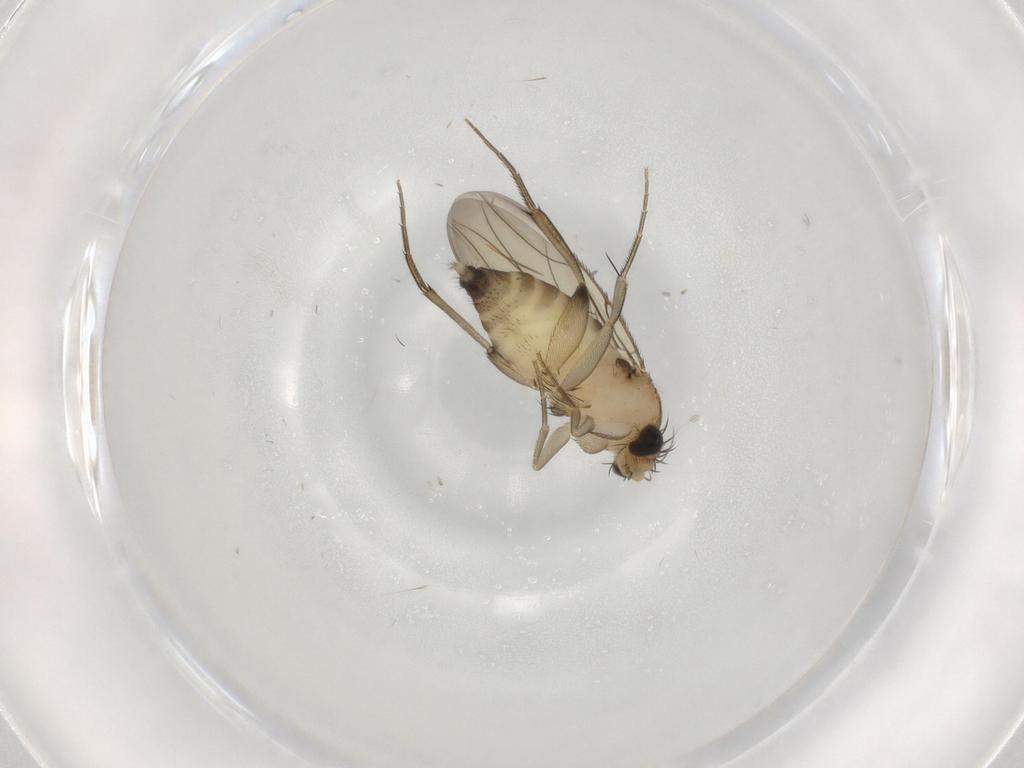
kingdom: Animalia
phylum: Arthropoda
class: Insecta
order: Diptera
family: Phoridae
